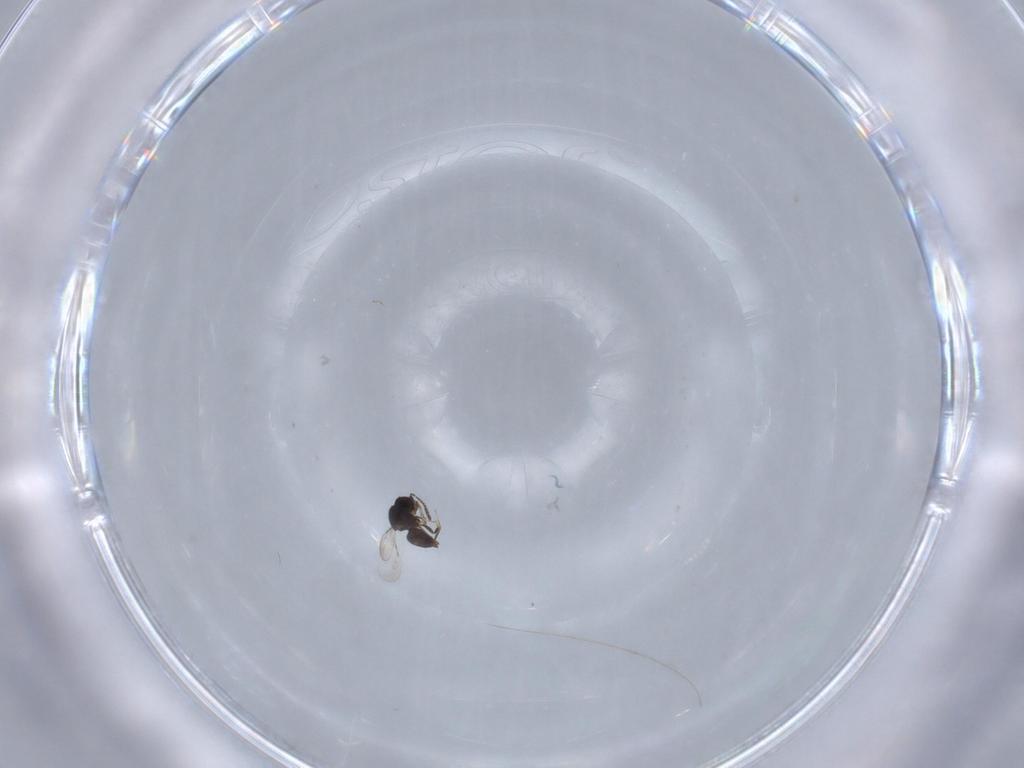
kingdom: Animalia
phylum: Arthropoda
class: Insecta
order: Hymenoptera
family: Chalcididae
